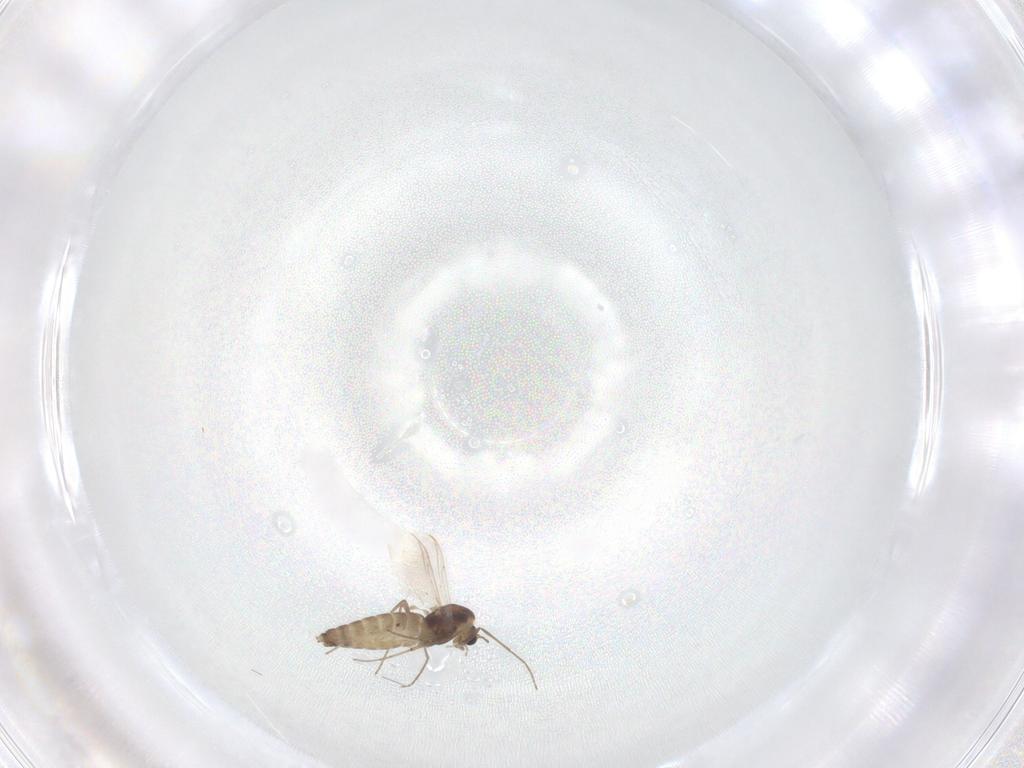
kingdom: Animalia
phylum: Arthropoda
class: Insecta
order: Diptera
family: Chironomidae
